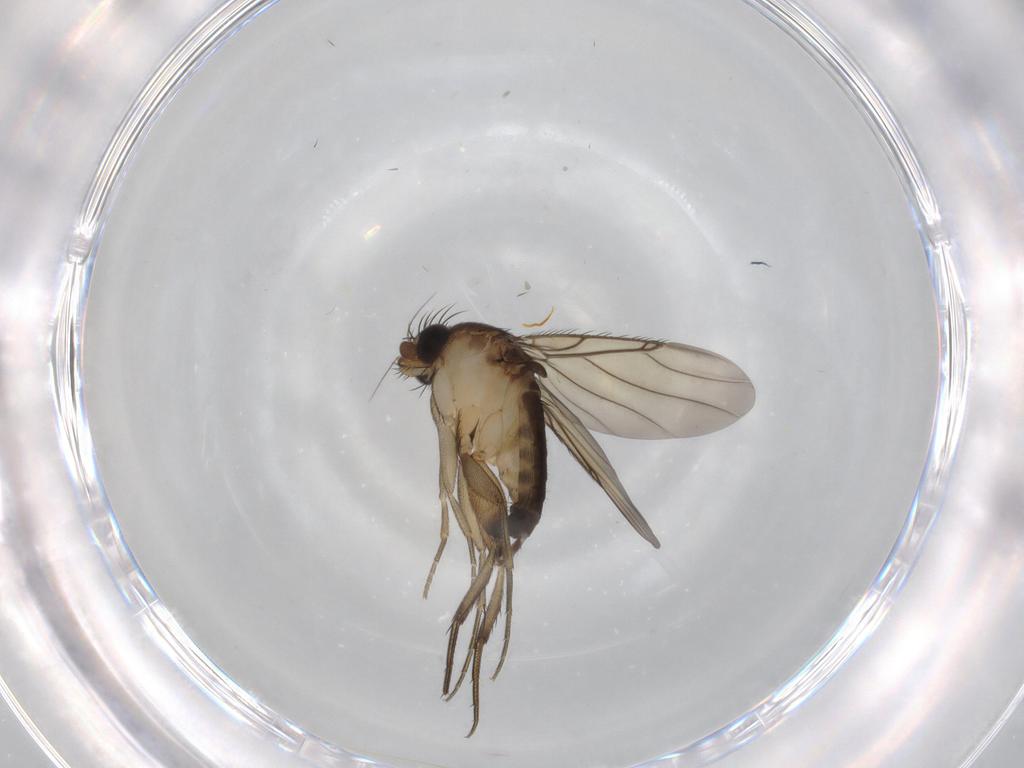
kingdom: Animalia
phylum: Arthropoda
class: Insecta
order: Diptera
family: Phoridae
